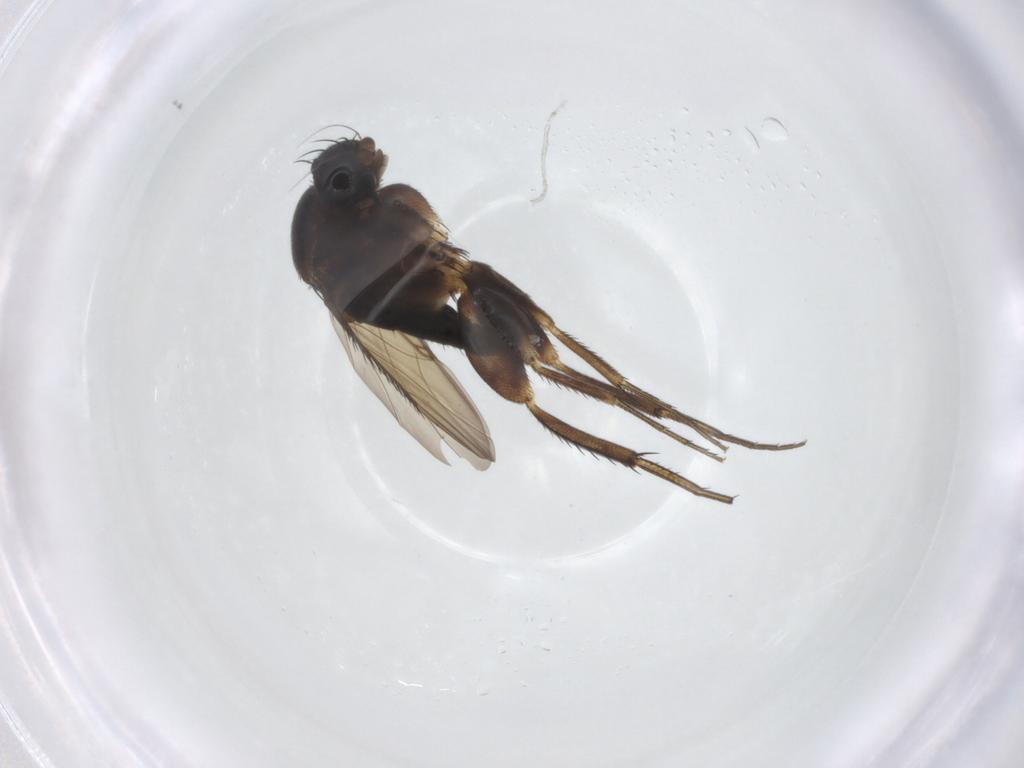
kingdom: Animalia
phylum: Arthropoda
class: Insecta
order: Diptera
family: Phoridae
